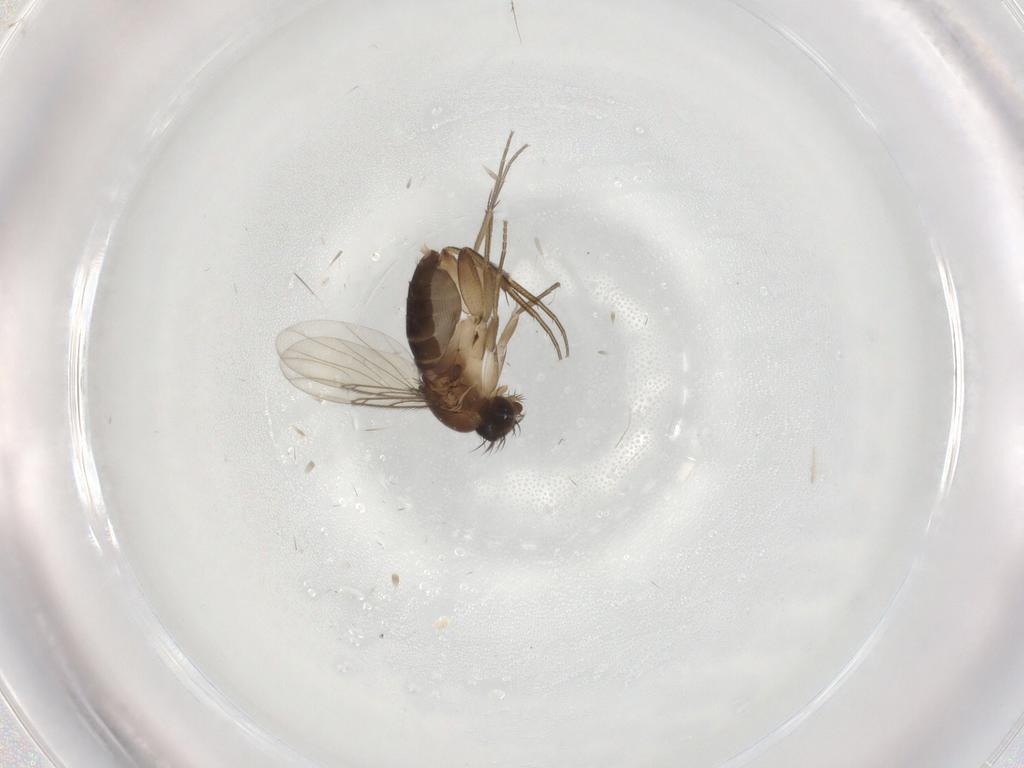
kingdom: Animalia
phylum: Arthropoda
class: Insecta
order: Diptera
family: Phoridae
